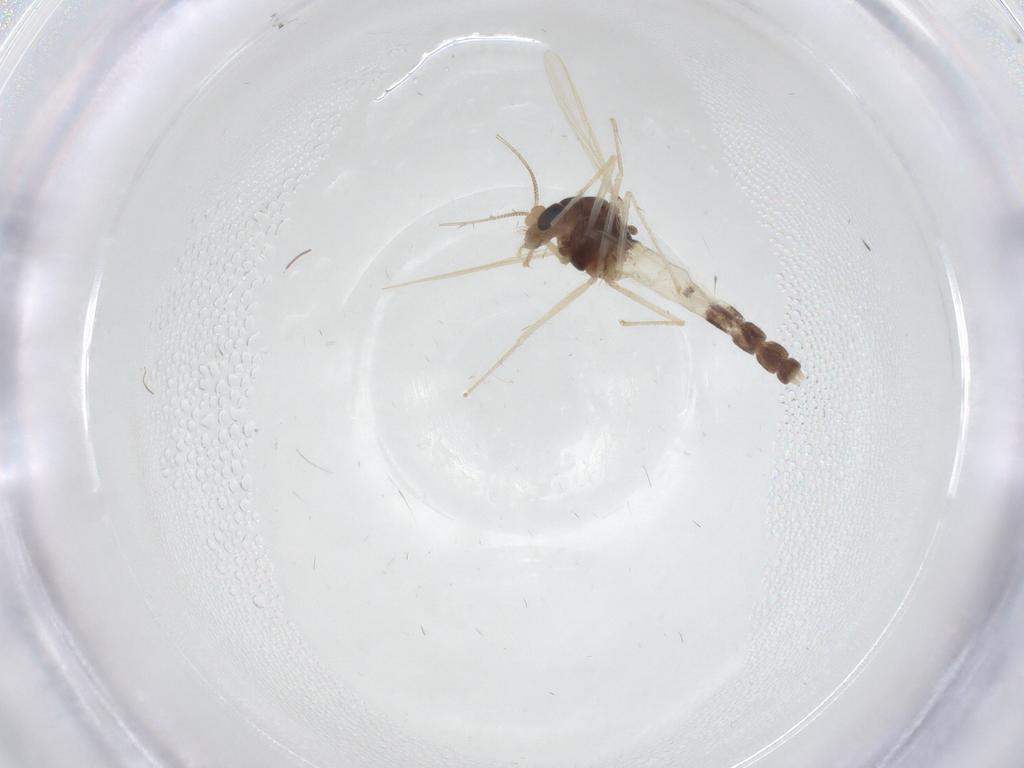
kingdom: Animalia
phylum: Arthropoda
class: Insecta
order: Diptera
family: Chironomidae
